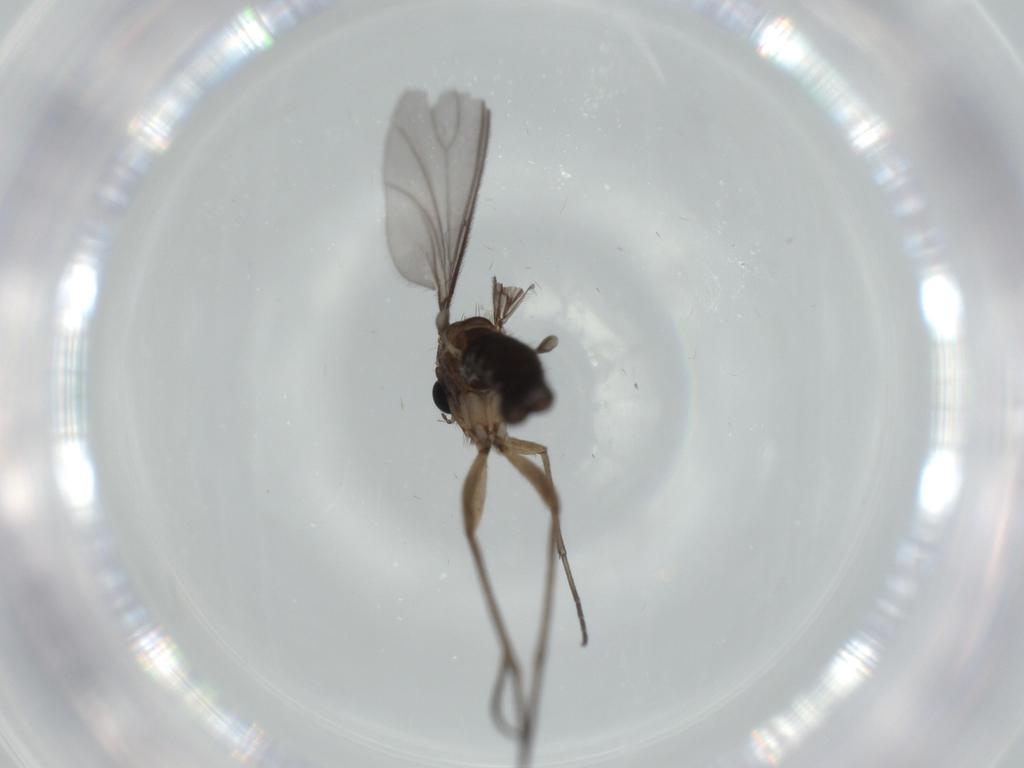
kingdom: Animalia
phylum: Arthropoda
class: Insecta
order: Diptera
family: Sciaridae
